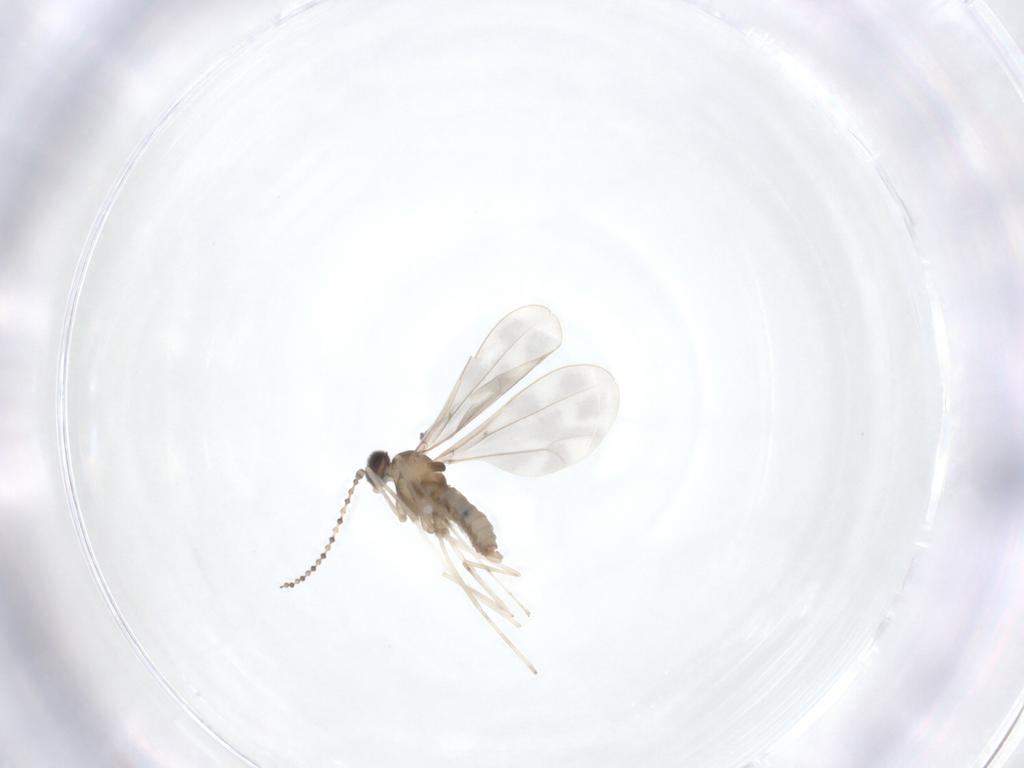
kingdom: Animalia
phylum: Arthropoda
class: Insecta
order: Diptera
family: Cecidomyiidae
